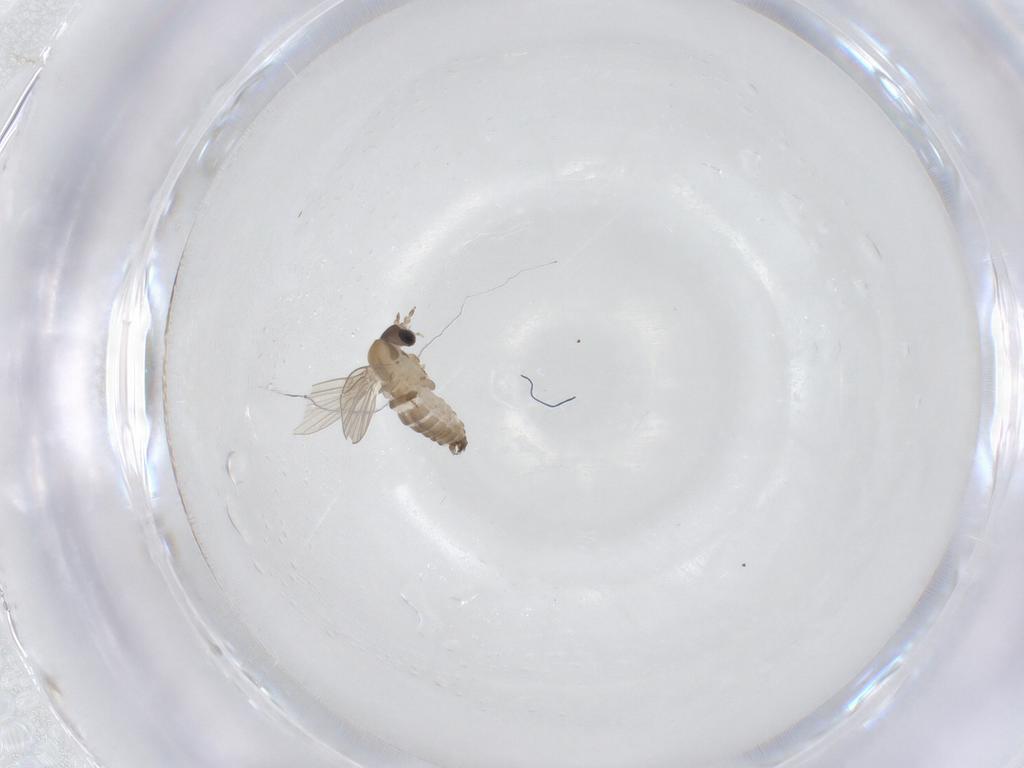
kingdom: Animalia
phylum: Arthropoda
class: Insecta
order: Diptera
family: Psychodidae
